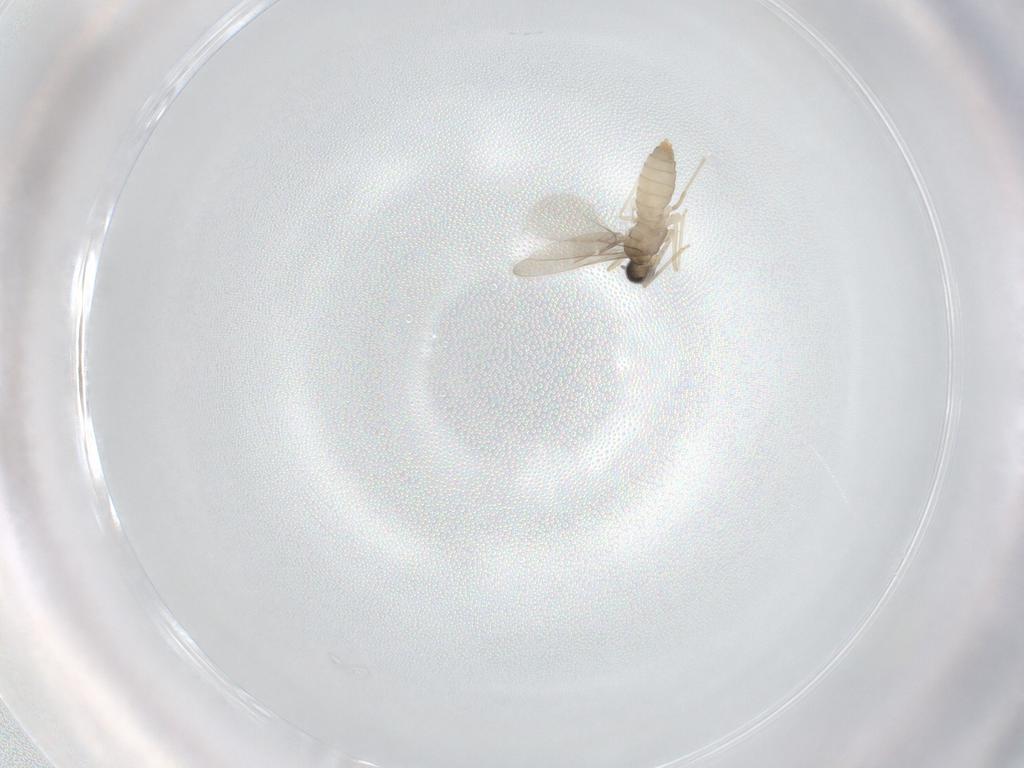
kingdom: Animalia
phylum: Arthropoda
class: Insecta
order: Diptera
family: Cecidomyiidae
